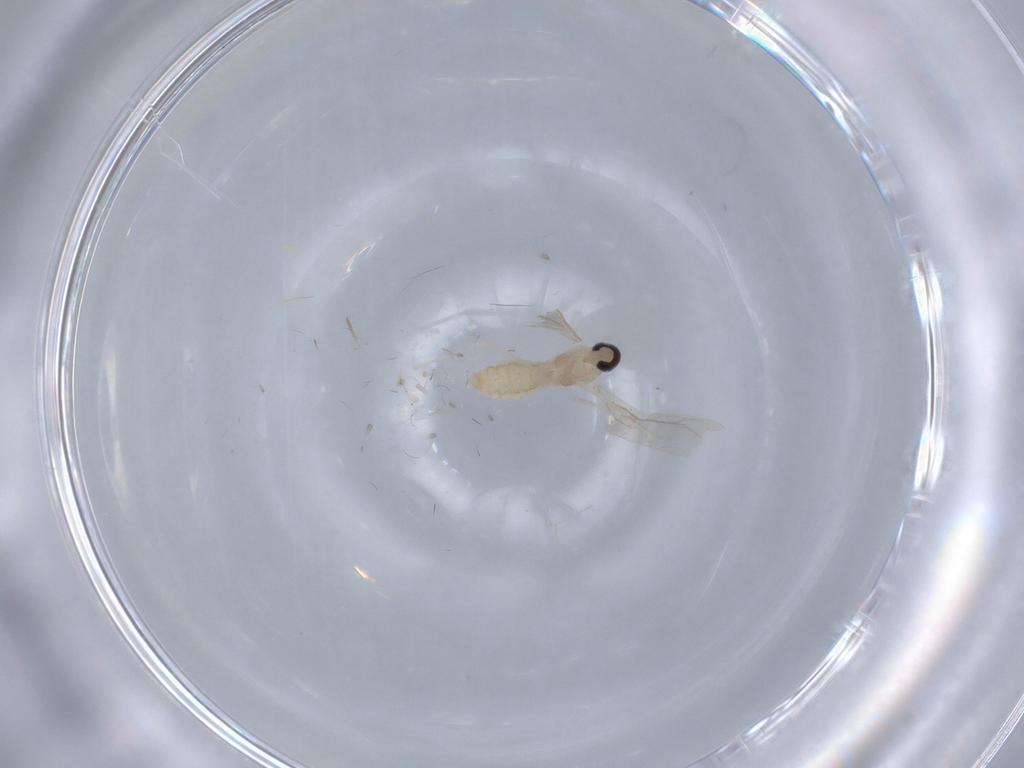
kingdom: Animalia
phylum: Arthropoda
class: Insecta
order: Diptera
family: Cecidomyiidae
